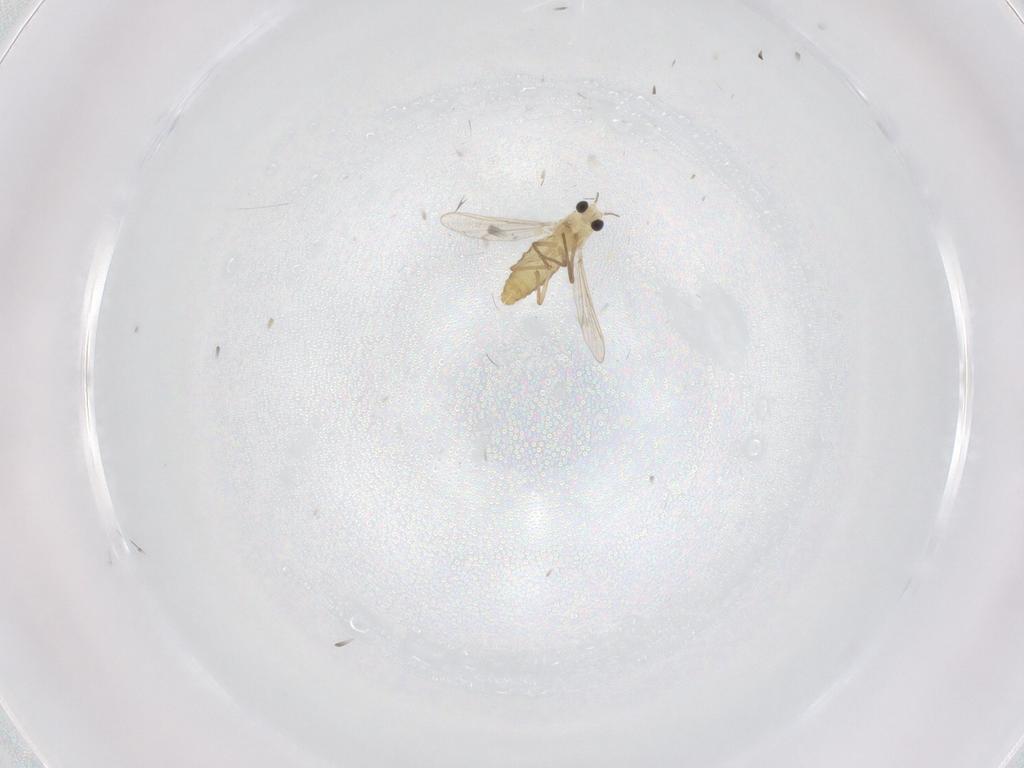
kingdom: Animalia
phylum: Arthropoda
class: Insecta
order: Diptera
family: Chironomidae
